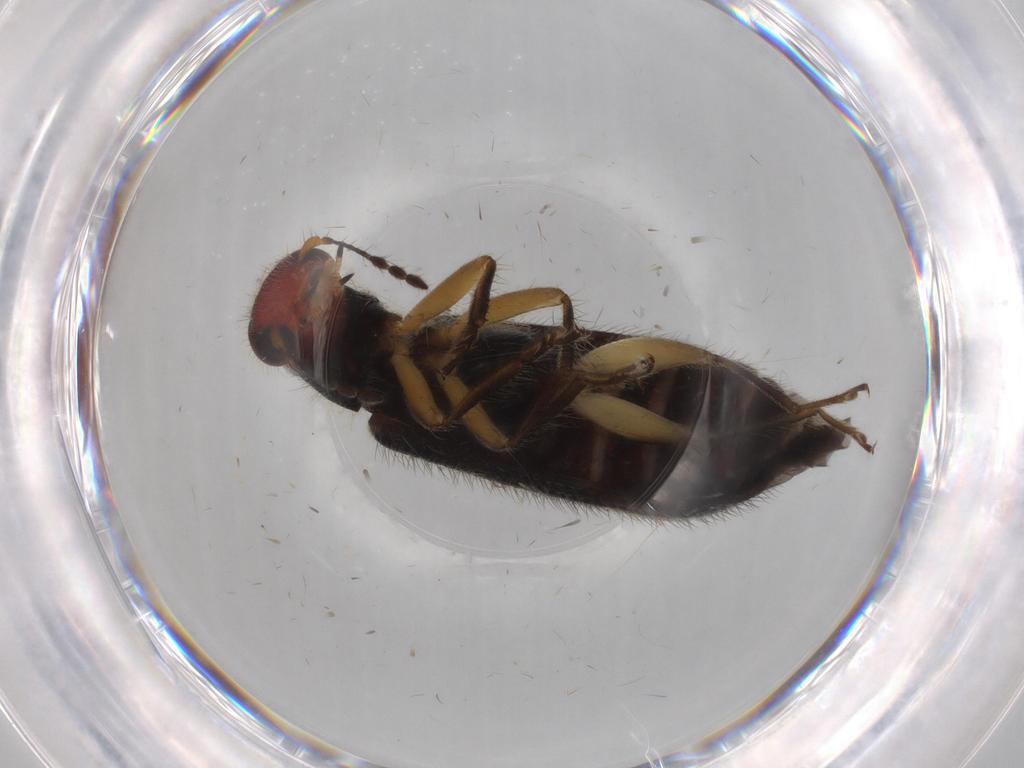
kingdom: Animalia
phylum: Arthropoda
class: Insecta
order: Coleoptera
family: Cleridae
